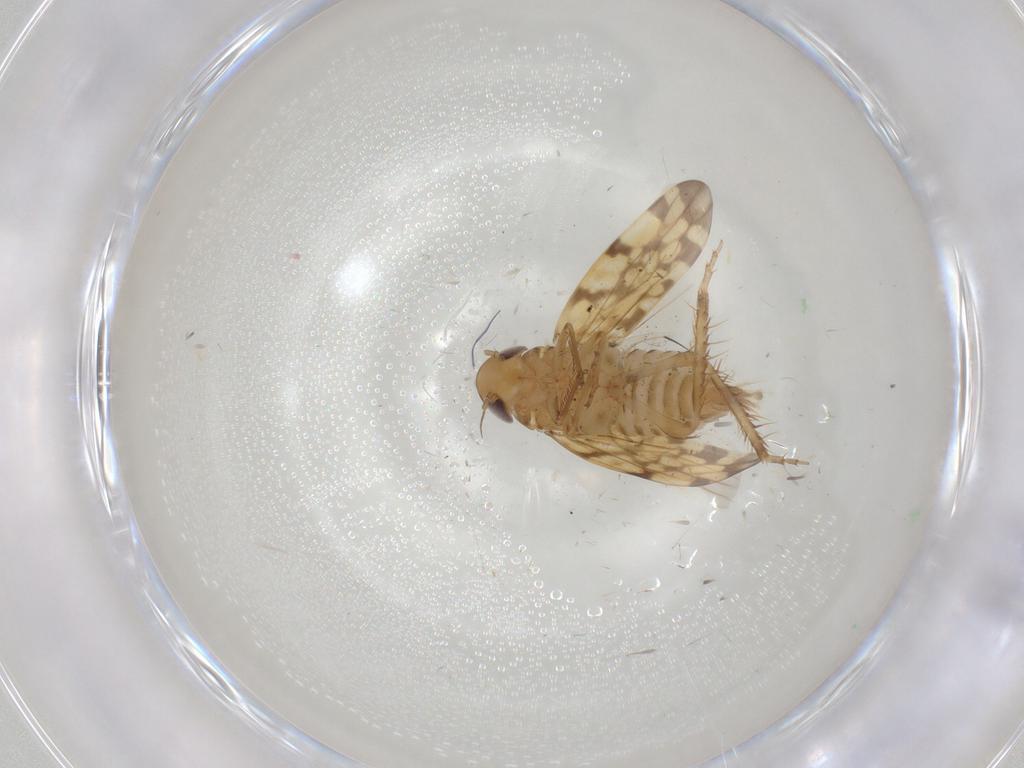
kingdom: Animalia
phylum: Arthropoda
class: Insecta
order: Hemiptera
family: Cicadellidae
